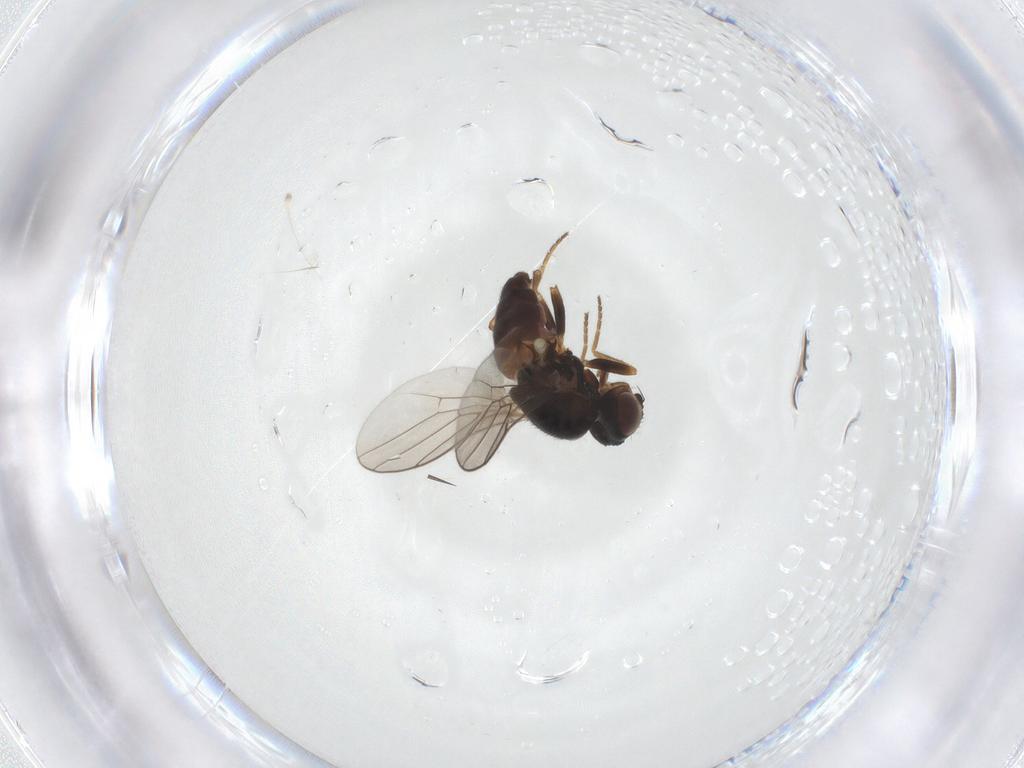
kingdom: Animalia
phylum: Arthropoda
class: Insecta
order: Diptera
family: Chloropidae
